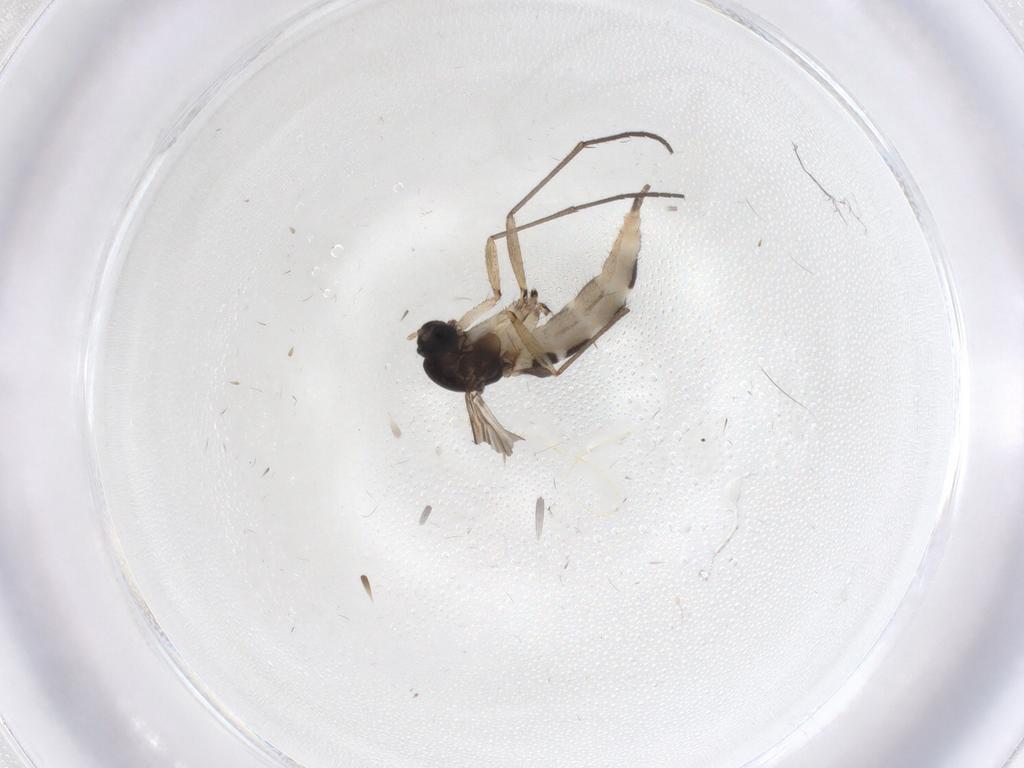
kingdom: Animalia
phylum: Arthropoda
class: Insecta
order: Diptera
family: Sciaridae
